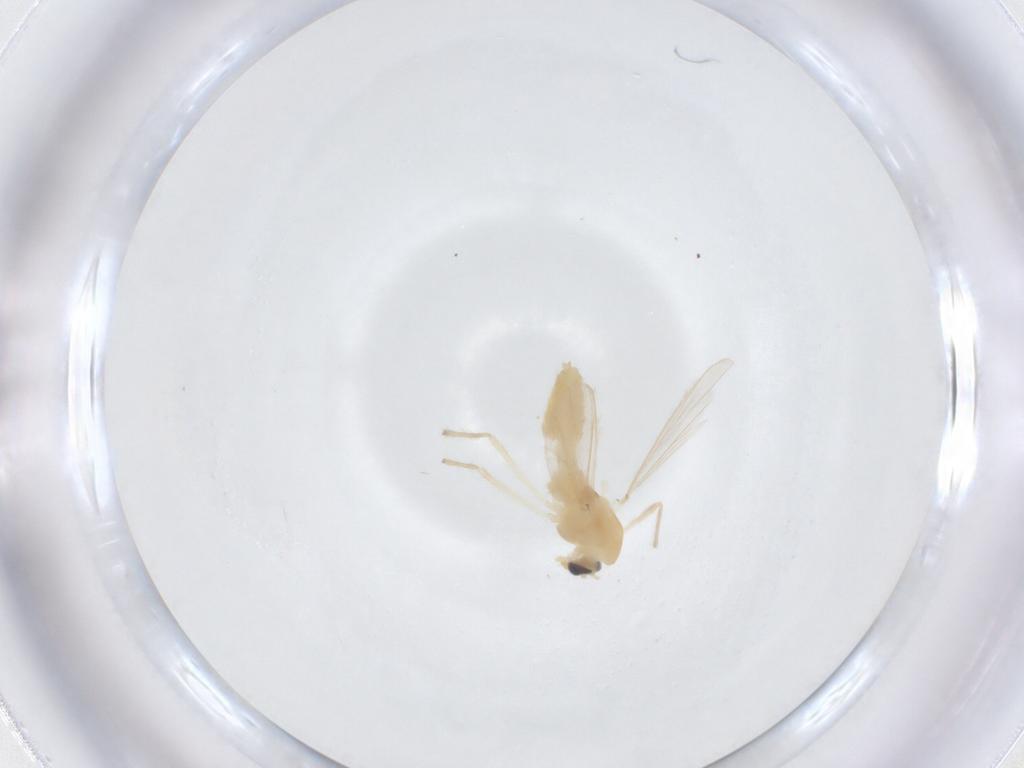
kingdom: Animalia
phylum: Arthropoda
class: Insecta
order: Diptera
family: Chironomidae
